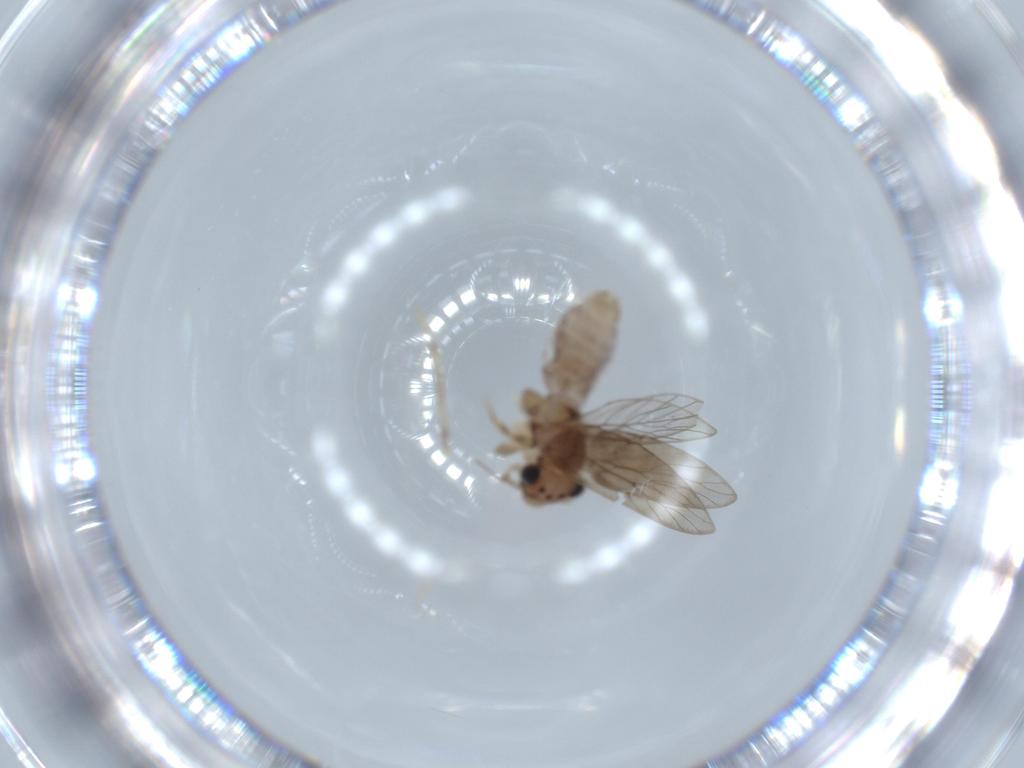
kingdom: Animalia
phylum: Arthropoda
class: Insecta
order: Psocodea
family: Lepidopsocidae
